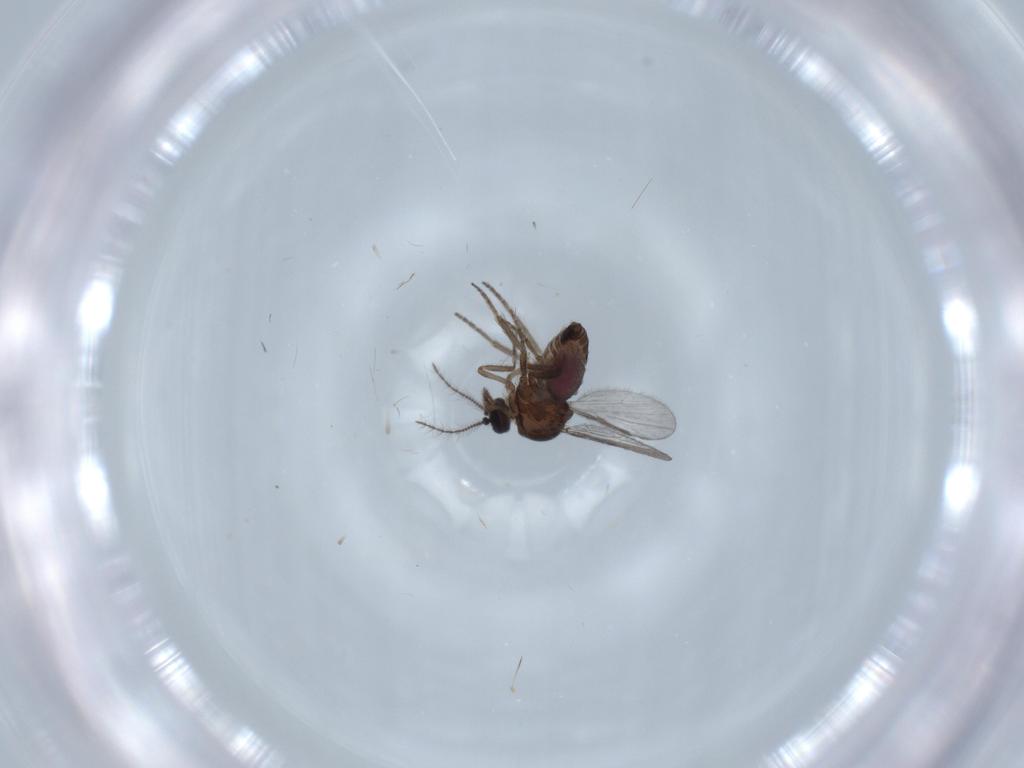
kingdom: Animalia
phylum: Arthropoda
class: Insecta
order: Diptera
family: Chironomidae
